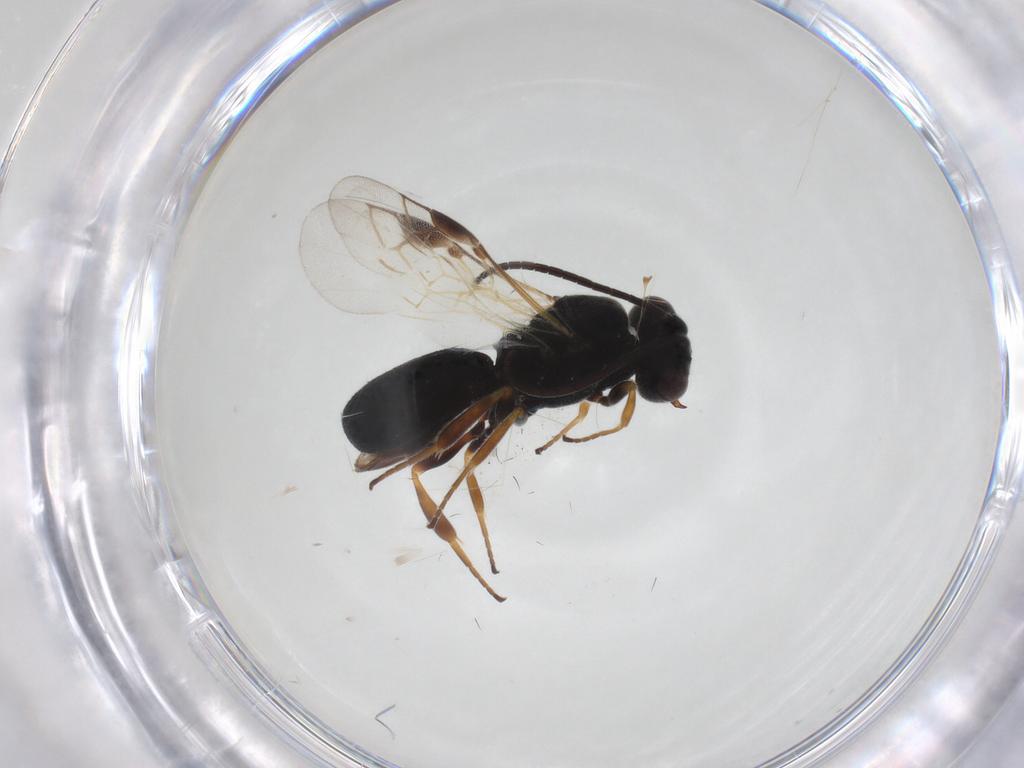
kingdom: Animalia
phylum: Arthropoda
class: Insecta
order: Hymenoptera
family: Braconidae
